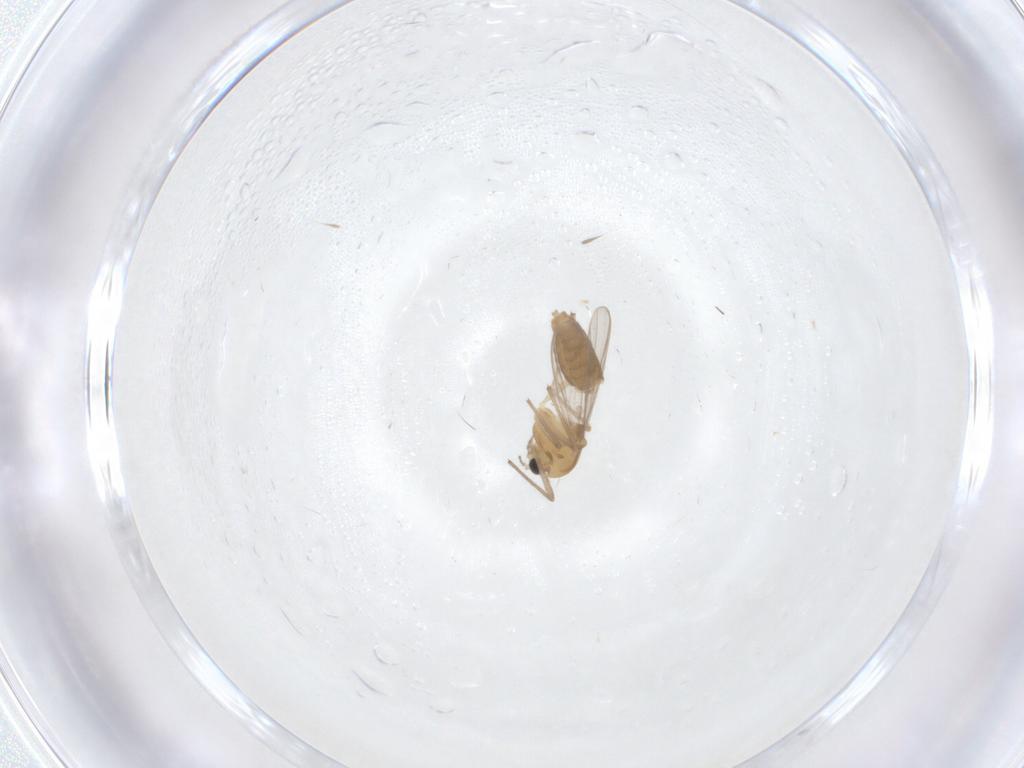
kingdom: Animalia
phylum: Arthropoda
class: Insecta
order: Diptera
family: Chironomidae
